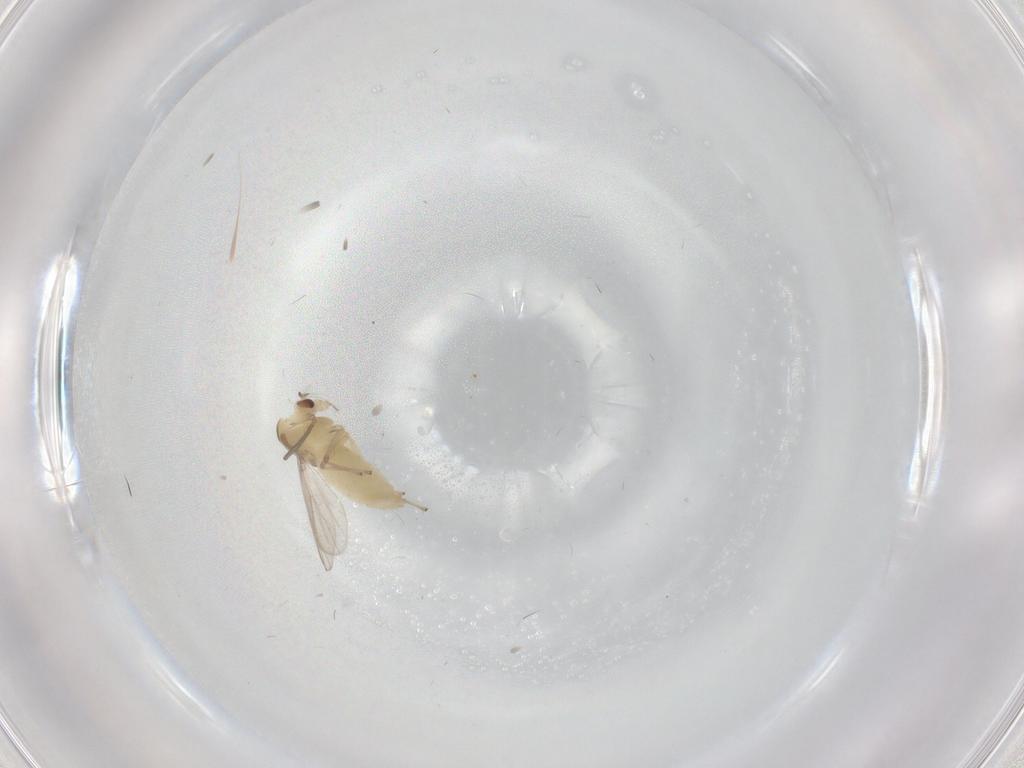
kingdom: Animalia
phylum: Arthropoda
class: Insecta
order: Diptera
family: Chironomidae
